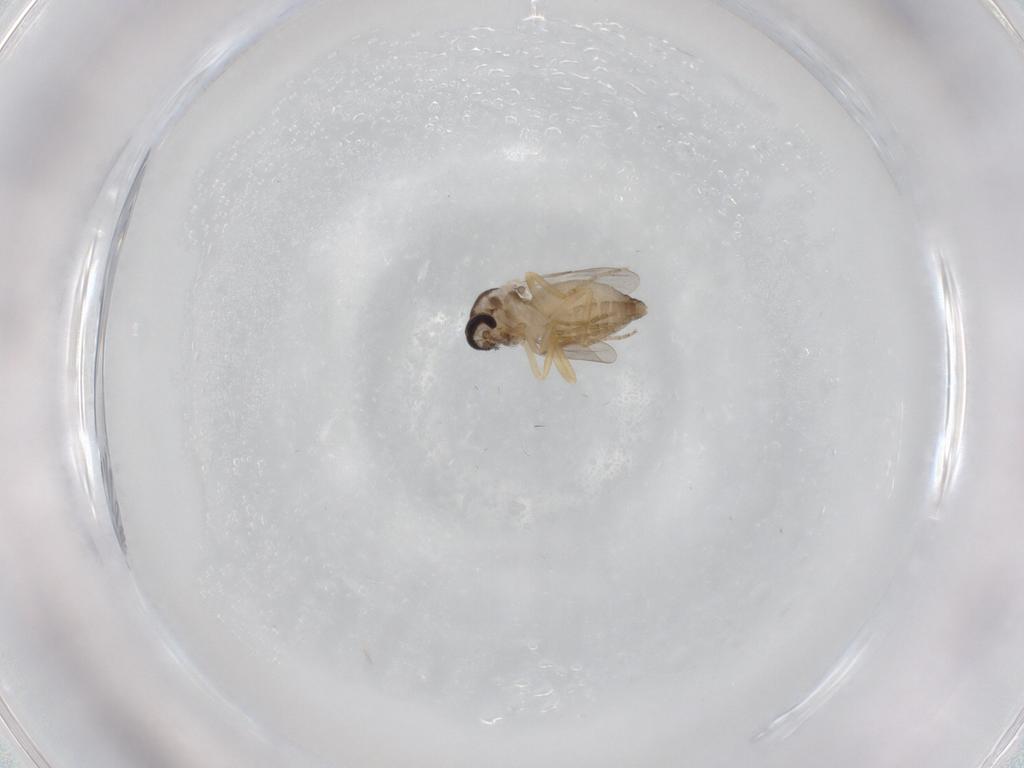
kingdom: Animalia
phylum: Arthropoda
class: Insecta
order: Diptera
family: Ceratopogonidae
